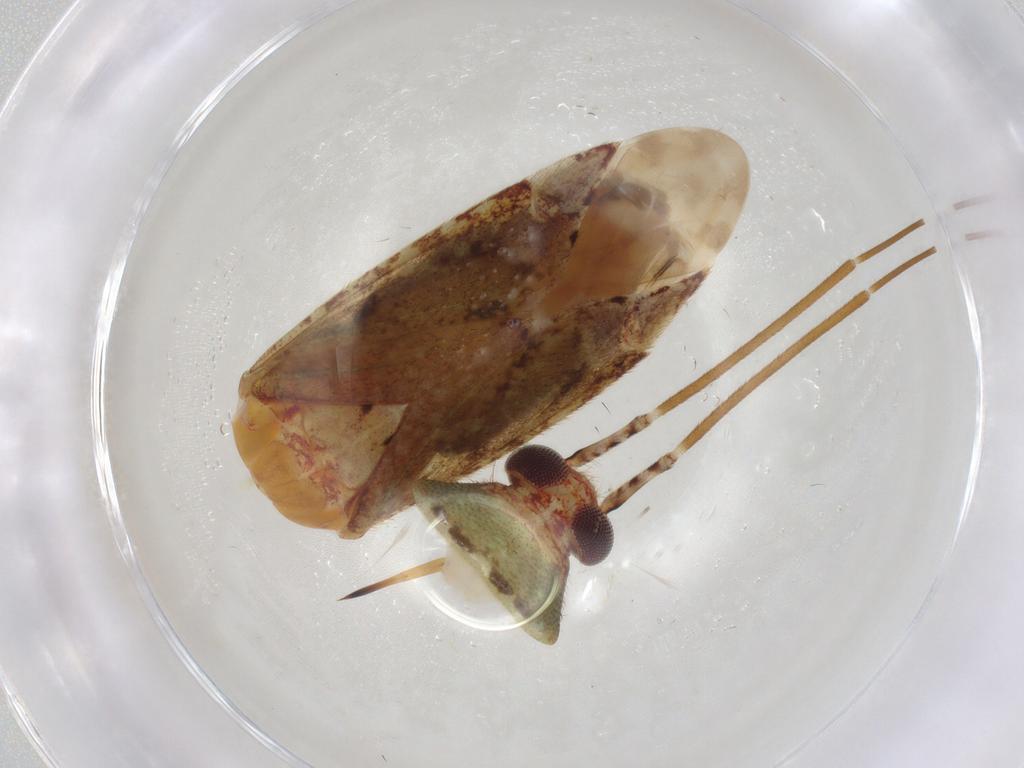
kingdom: Animalia
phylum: Arthropoda
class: Insecta
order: Hemiptera
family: Miridae
